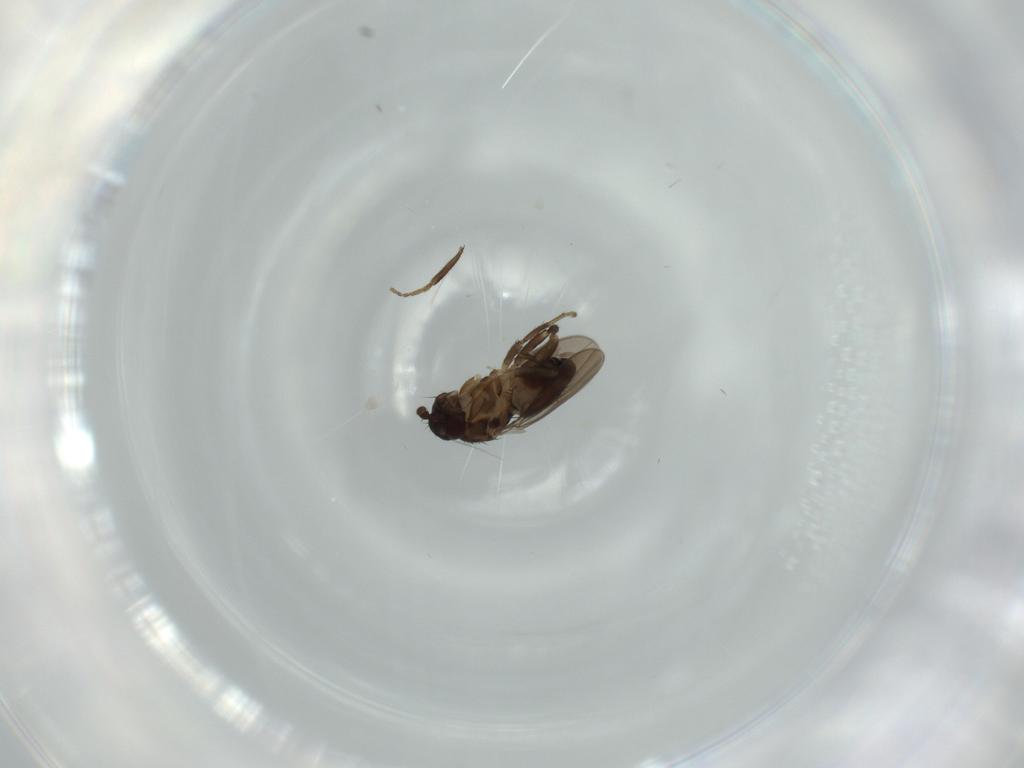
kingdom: Animalia
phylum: Arthropoda
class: Insecta
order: Diptera
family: Sphaeroceridae
